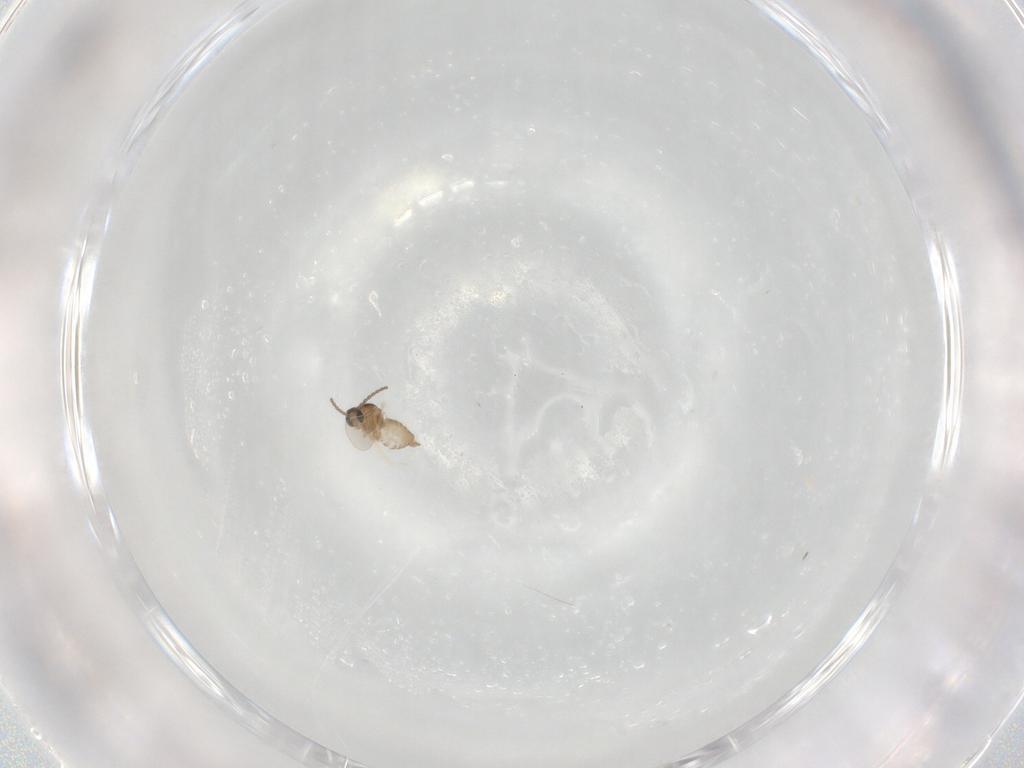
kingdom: Animalia
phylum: Arthropoda
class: Insecta
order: Diptera
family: Cecidomyiidae
